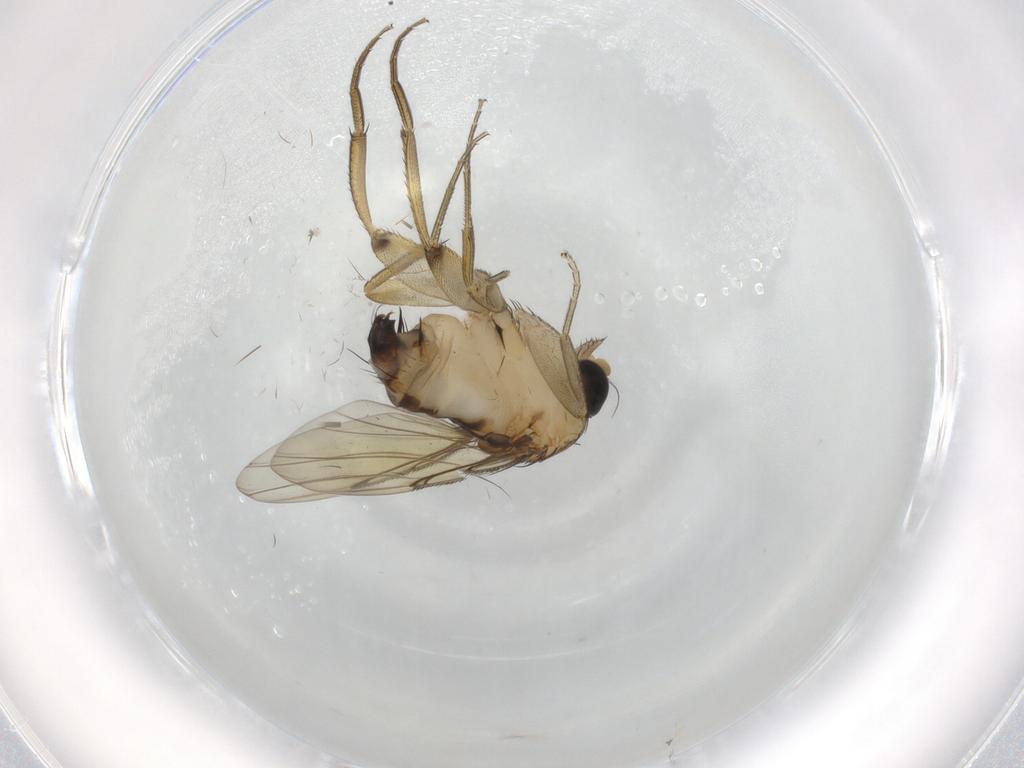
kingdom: Animalia
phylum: Arthropoda
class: Insecta
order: Diptera
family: Phoridae
